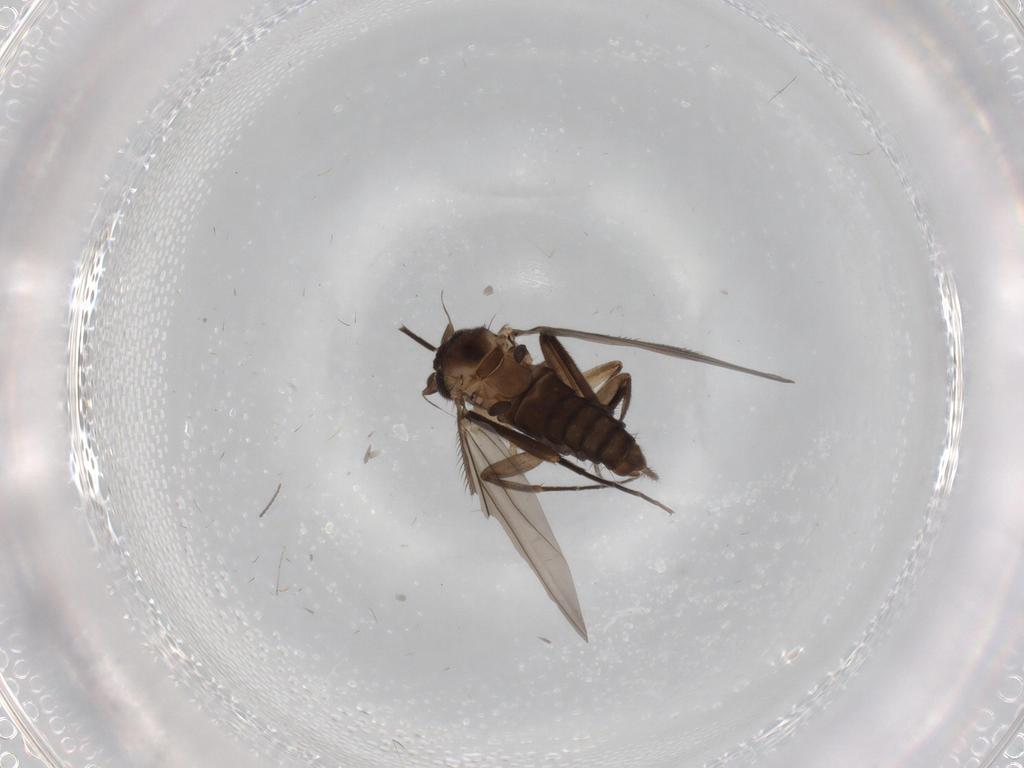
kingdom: Animalia
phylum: Arthropoda
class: Insecta
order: Diptera
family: Phoridae
